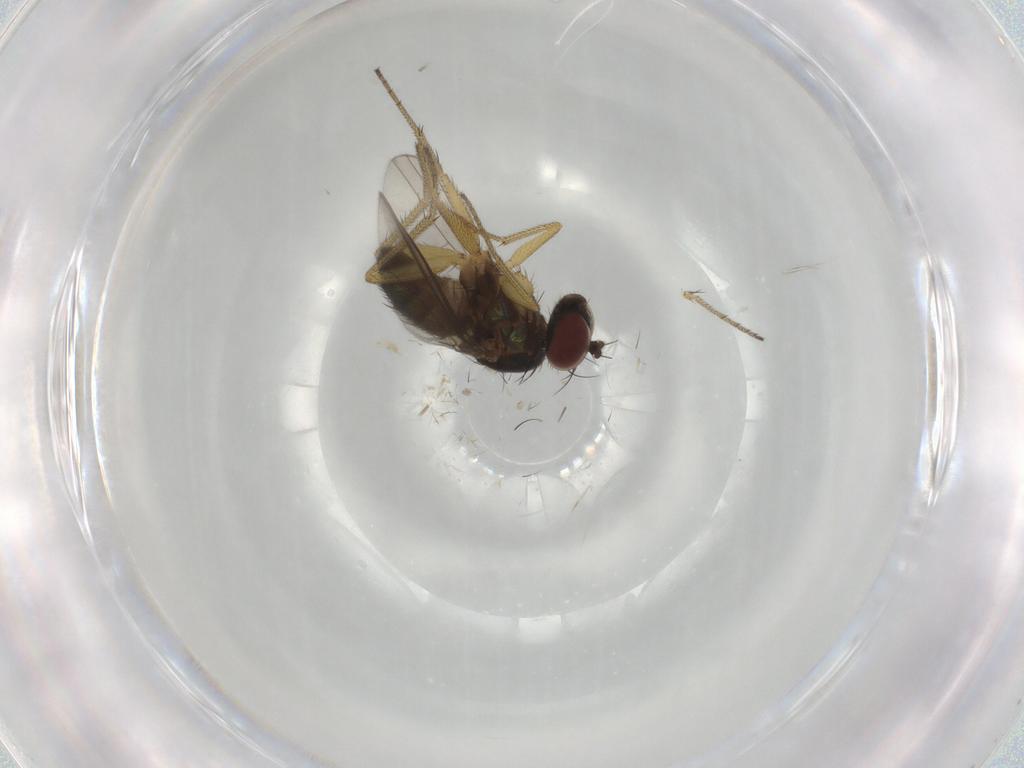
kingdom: Animalia
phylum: Arthropoda
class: Insecta
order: Diptera
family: Dolichopodidae
